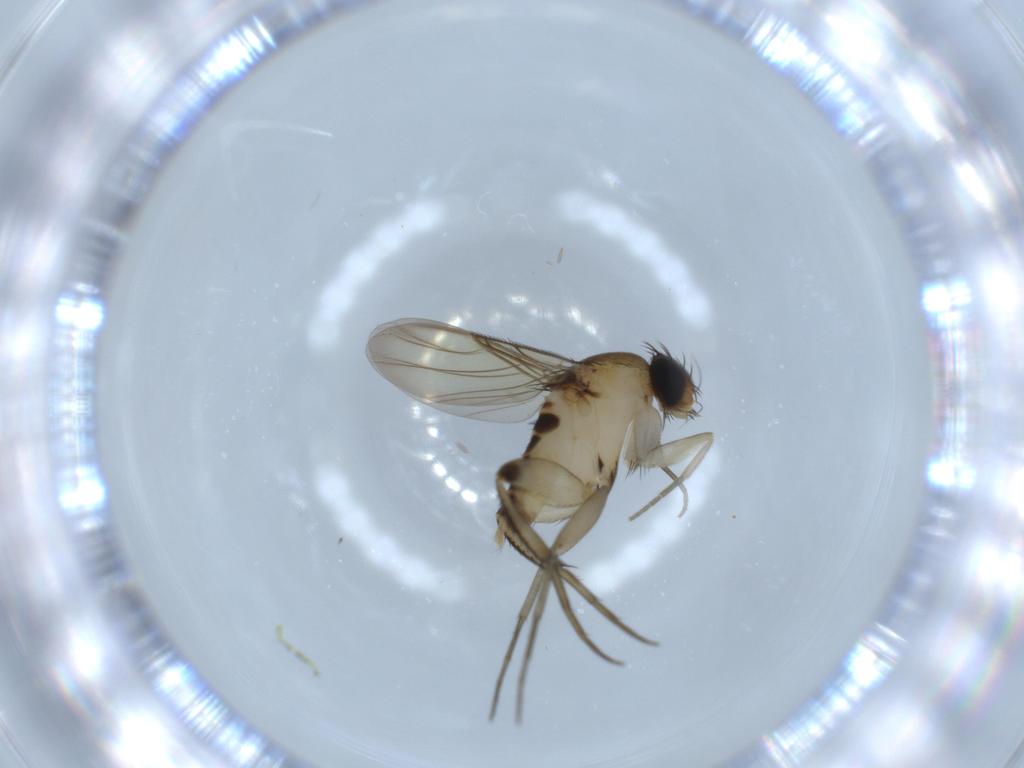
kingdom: Animalia
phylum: Arthropoda
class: Insecta
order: Diptera
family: Phoridae
